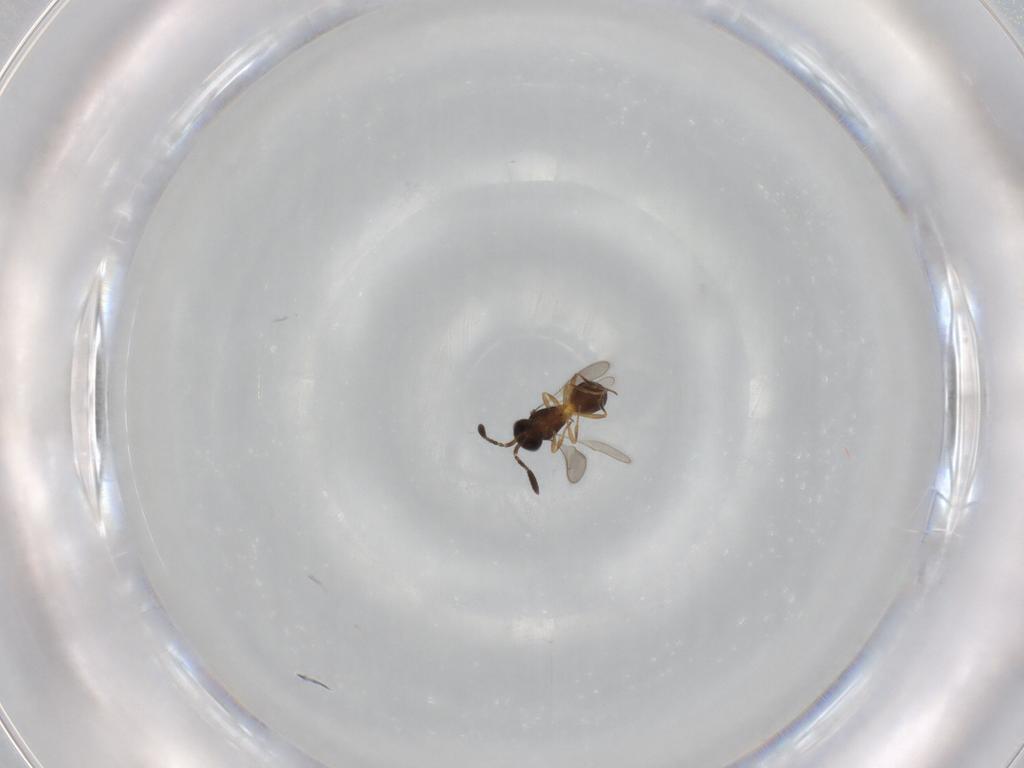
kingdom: Animalia
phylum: Arthropoda
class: Insecta
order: Hymenoptera
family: Scelionidae
